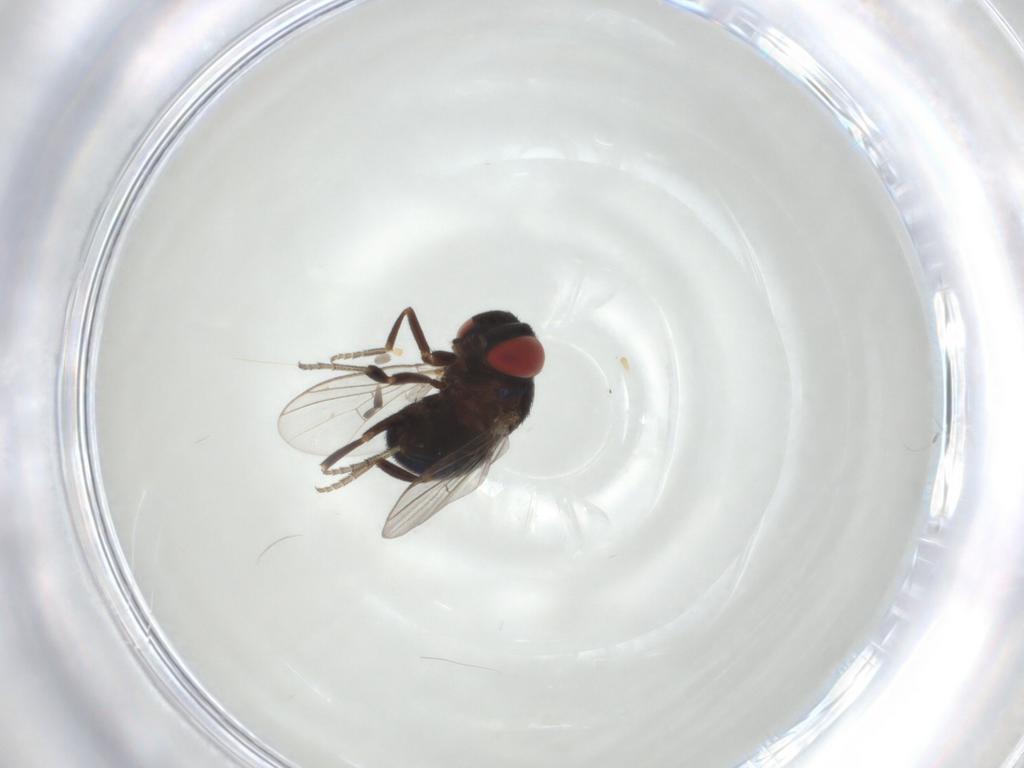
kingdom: Animalia
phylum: Arthropoda
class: Insecta
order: Diptera
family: Cryptochetidae
